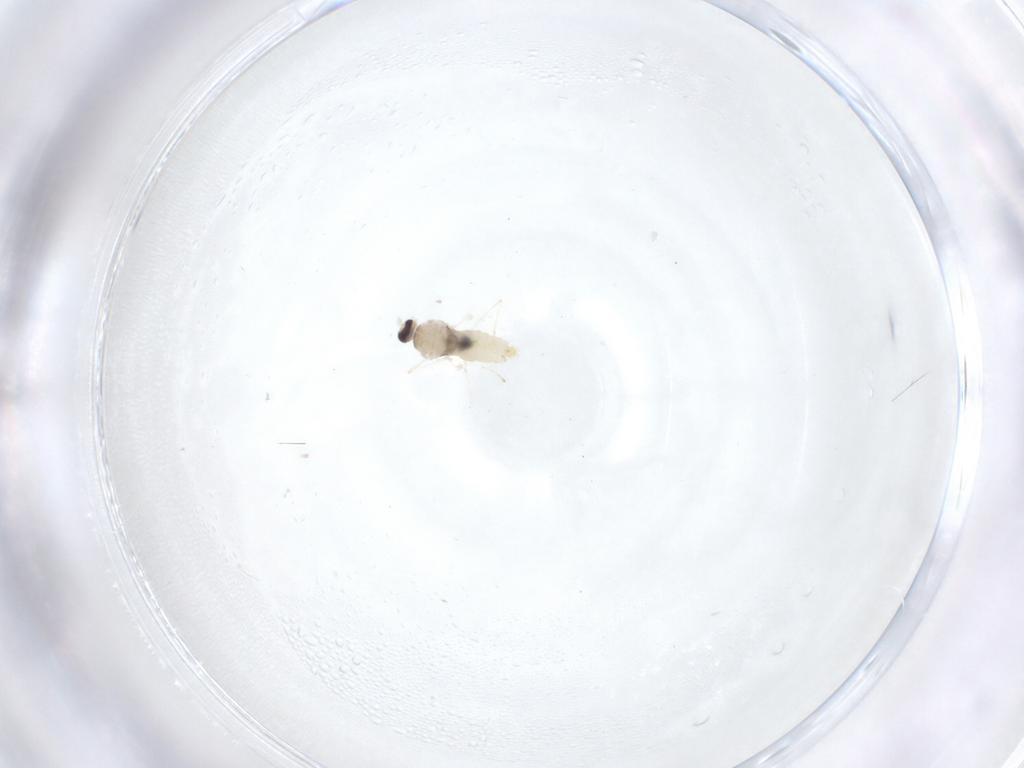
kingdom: Animalia
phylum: Arthropoda
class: Insecta
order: Diptera
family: Cecidomyiidae
